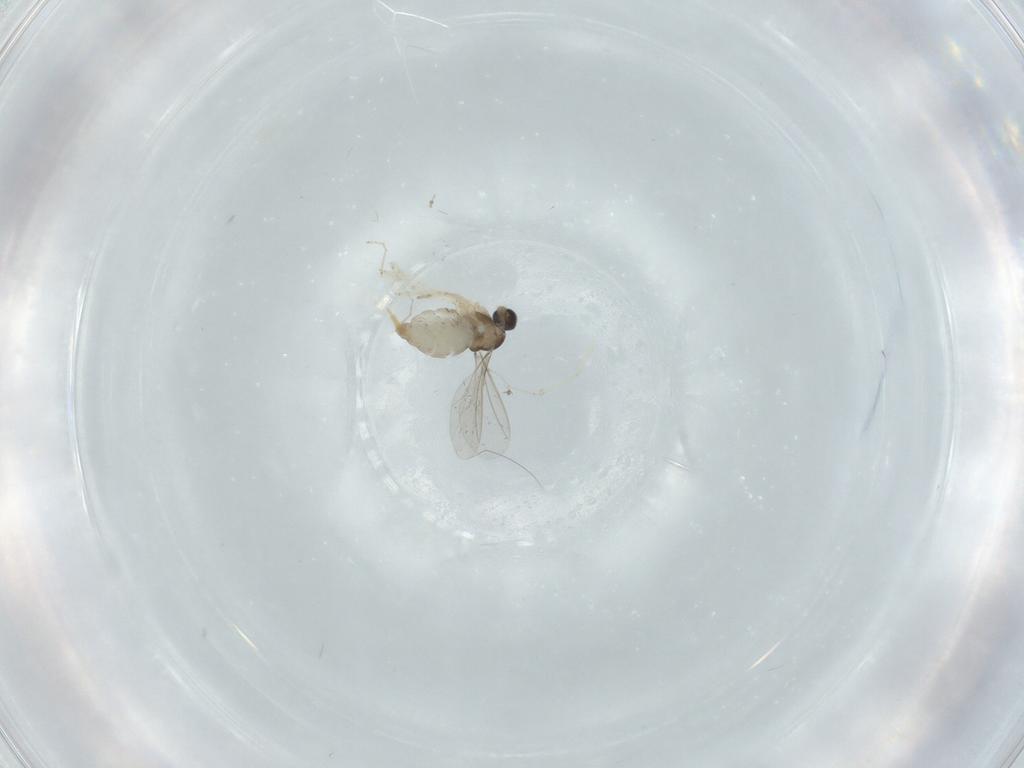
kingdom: Animalia
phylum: Arthropoda
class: Insecta
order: Diptera
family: Cecidomyiidae
